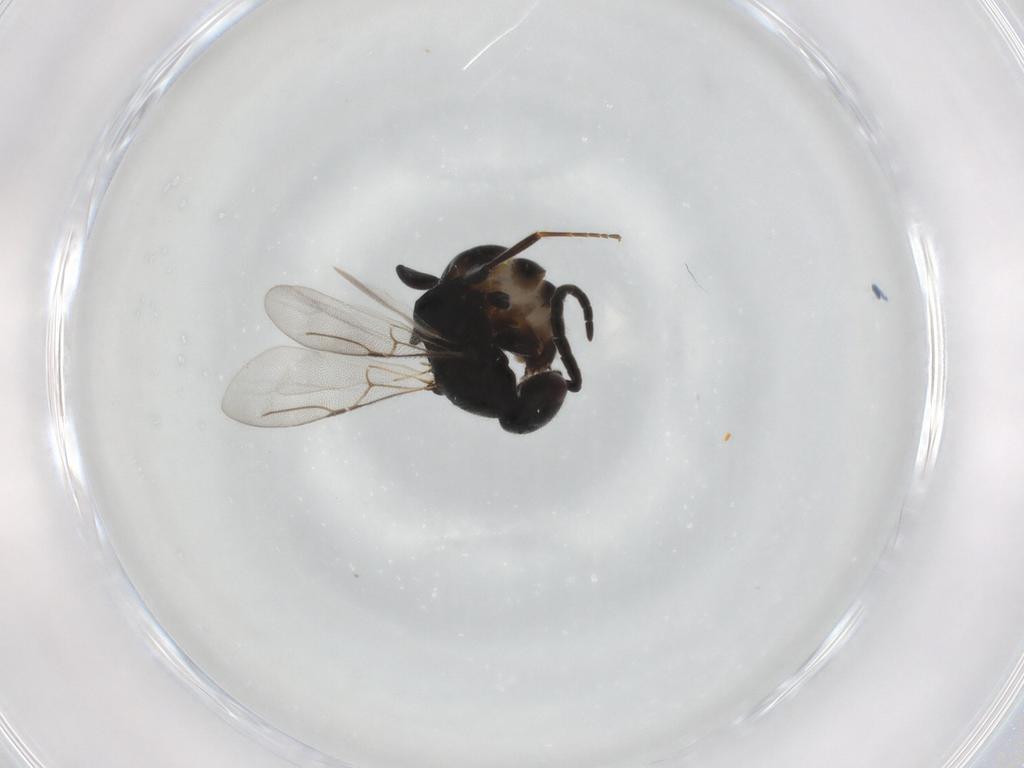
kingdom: Animalia
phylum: Arthropoda
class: Insecta
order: Hymenoptera
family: Bethylidae
